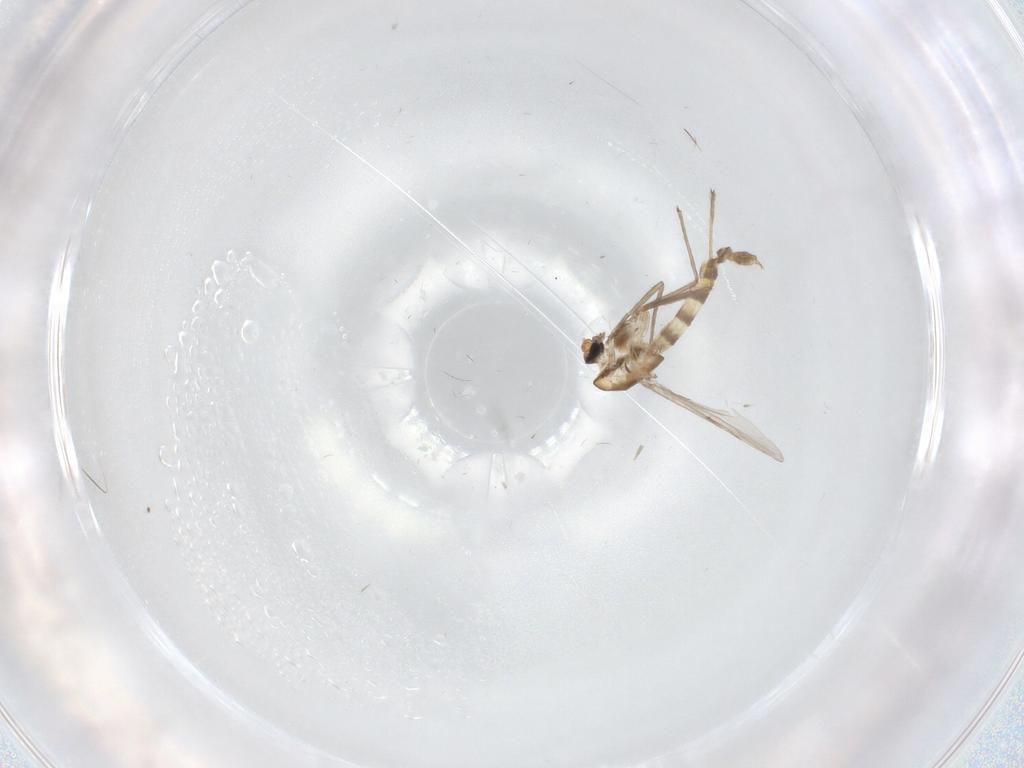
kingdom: Animalia
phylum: Arthropoda
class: Insecta
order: Diptera
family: Chironomidae
